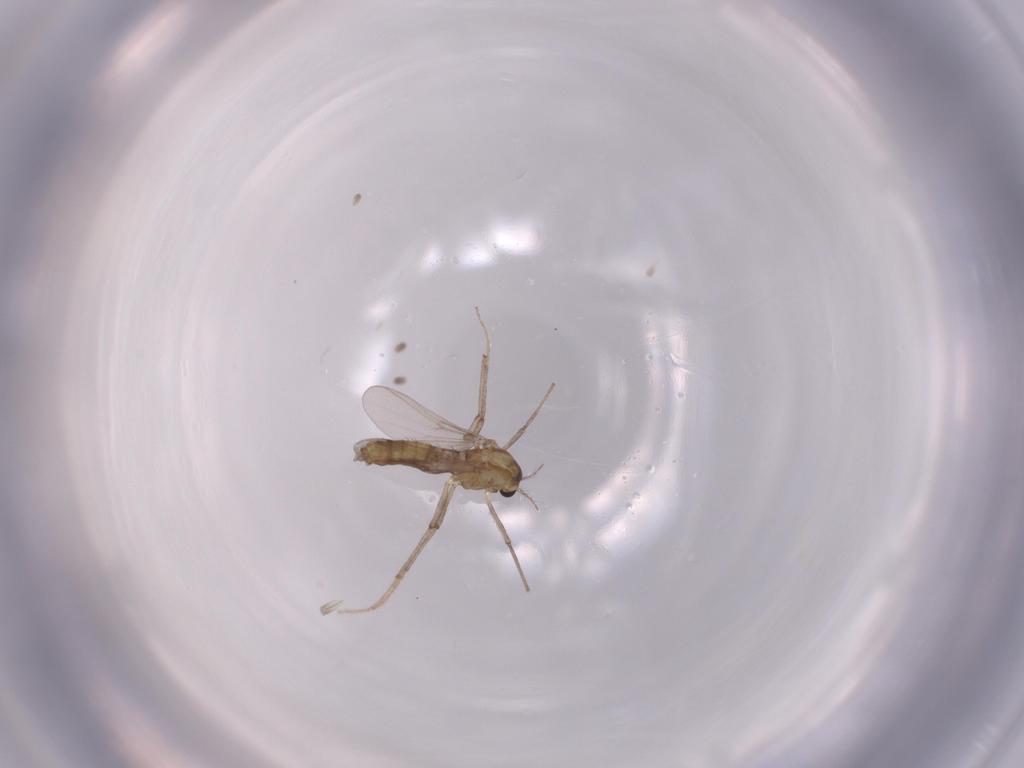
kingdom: Animalia
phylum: Arthropoda
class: Insecta
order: Diptera
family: Chironomidae
